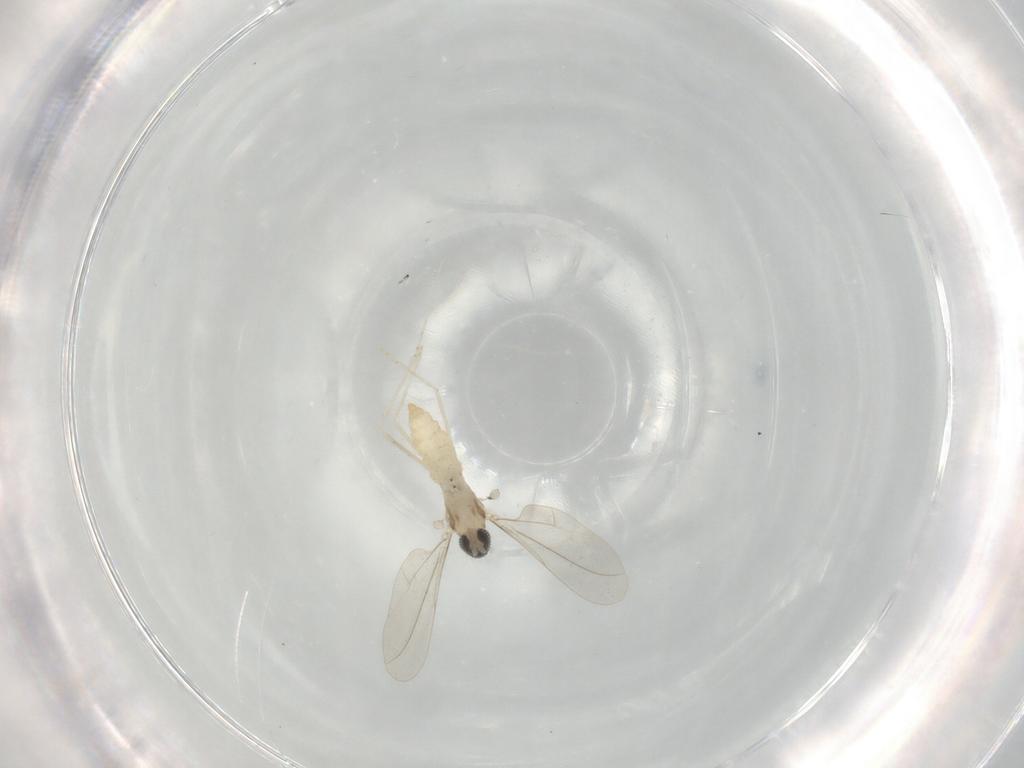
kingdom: Animalia
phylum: Arthropoda
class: Insecta
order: Diptera
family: Cecidomyiidae
